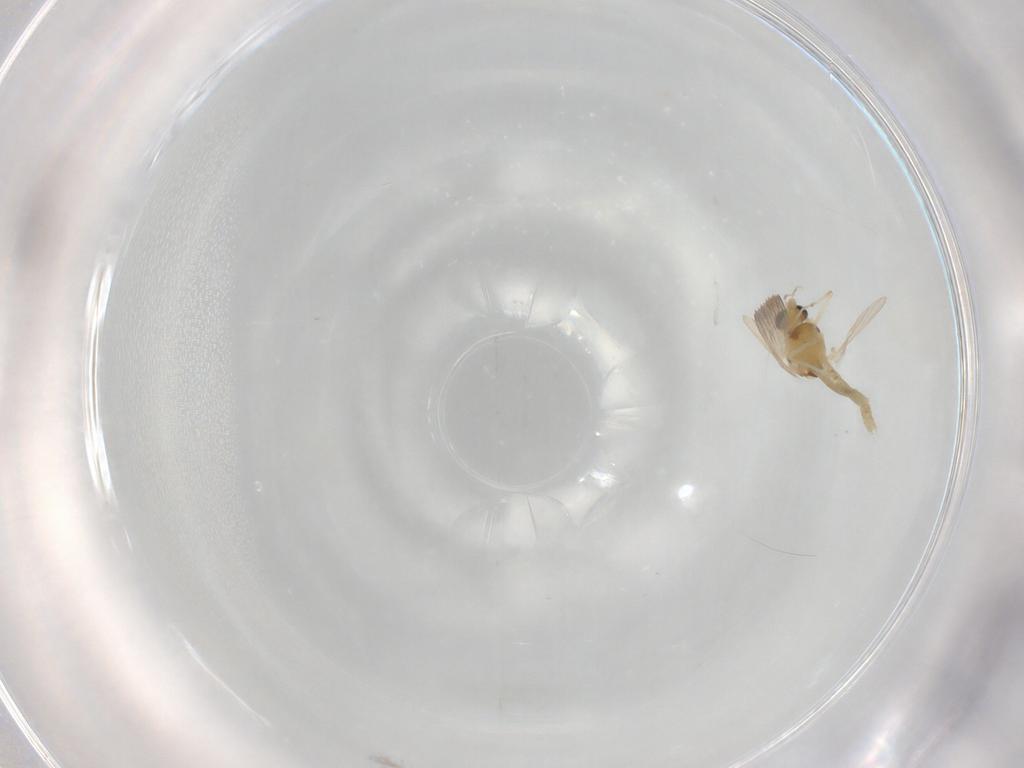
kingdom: Animalia
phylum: Arthropoda
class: Insecta
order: Diptera
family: Chironomidae
